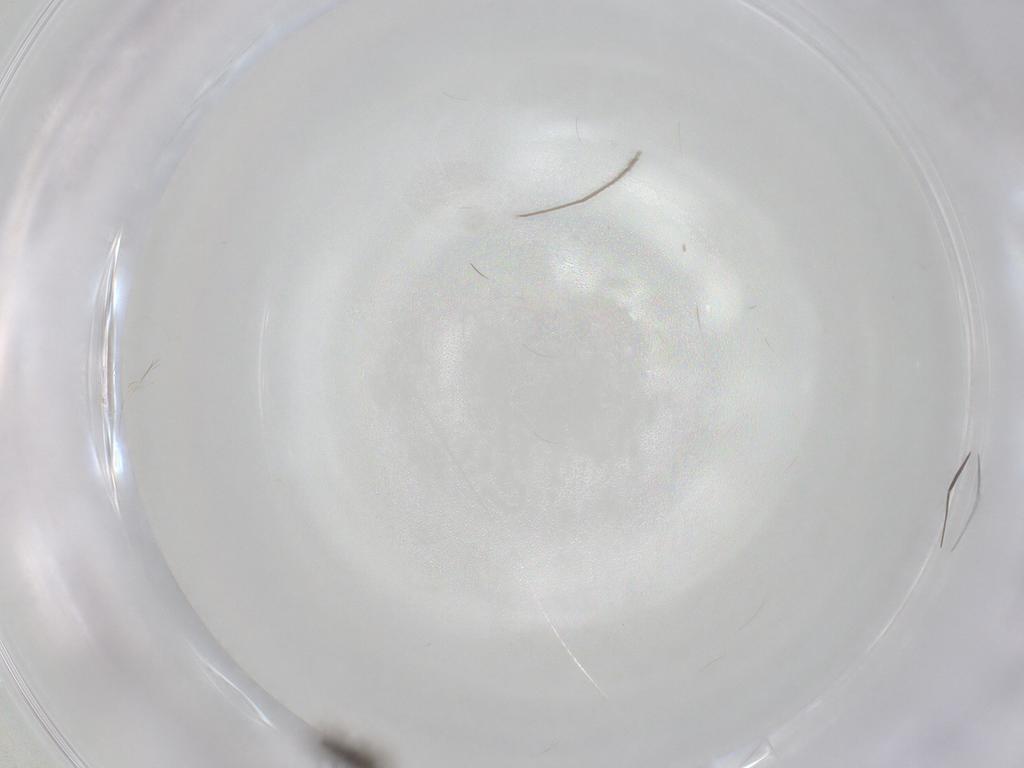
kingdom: Animalia
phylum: Arthropoda
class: Insecta
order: Hymenoptera
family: Eulophidae
